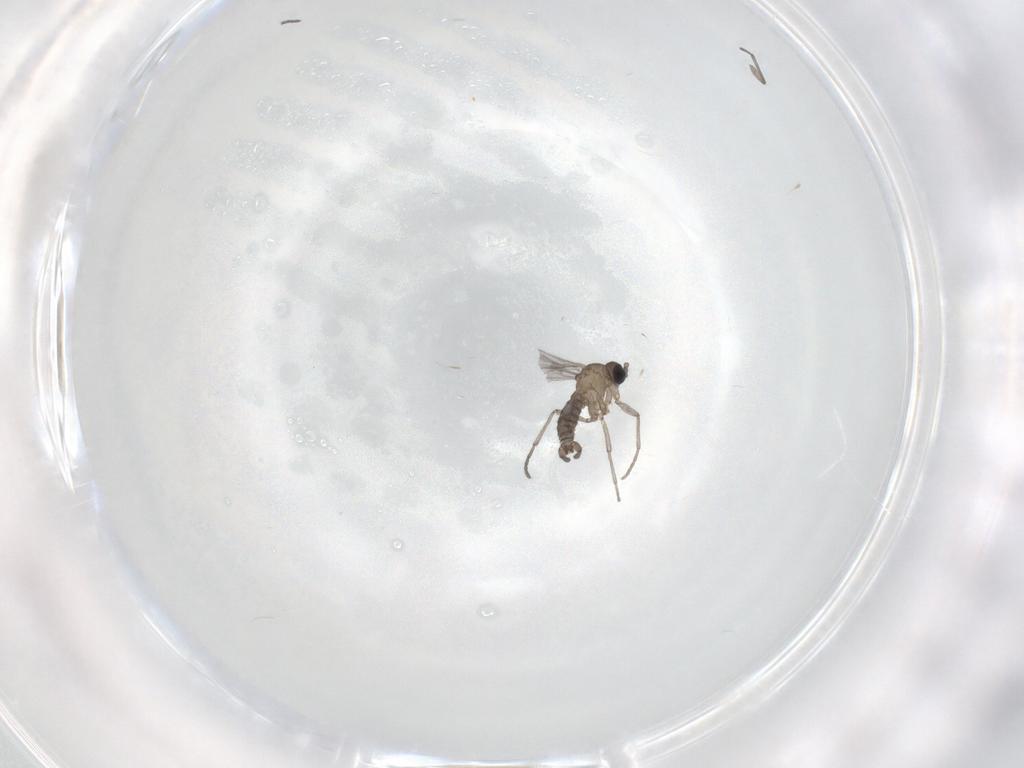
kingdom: Animalia
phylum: Arthropoda
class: Insecta
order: Diptera
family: Sciaridae
